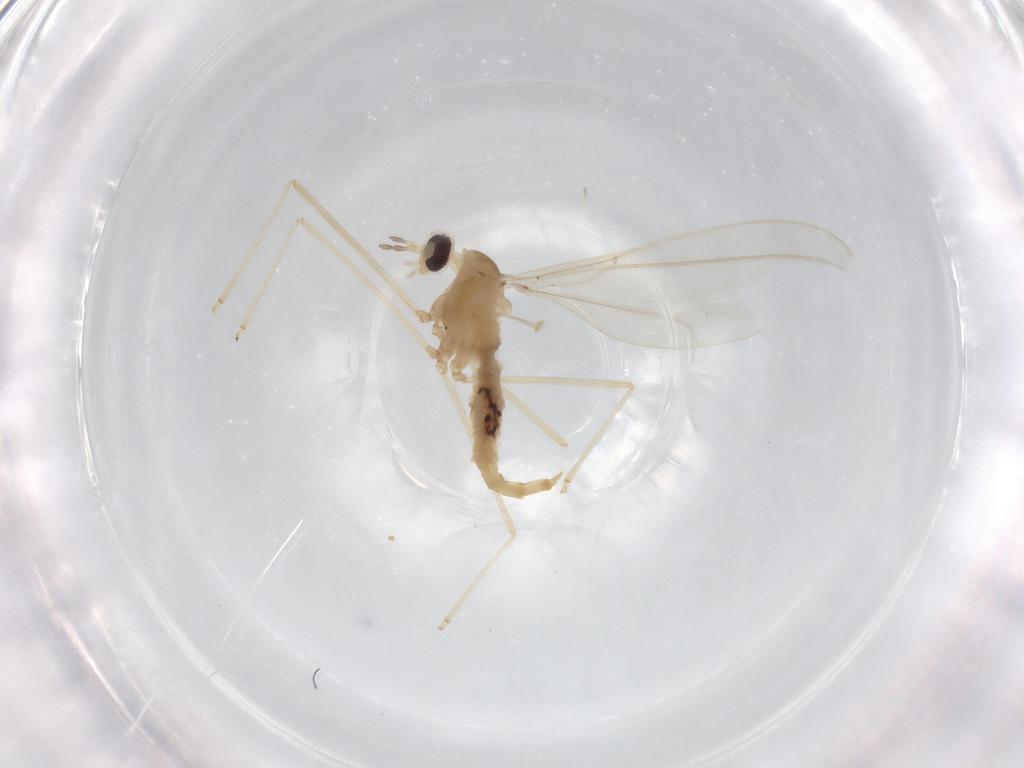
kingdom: Animalia
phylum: Arthropoda
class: Insecta
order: Diptera
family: Cecidomyiidae
